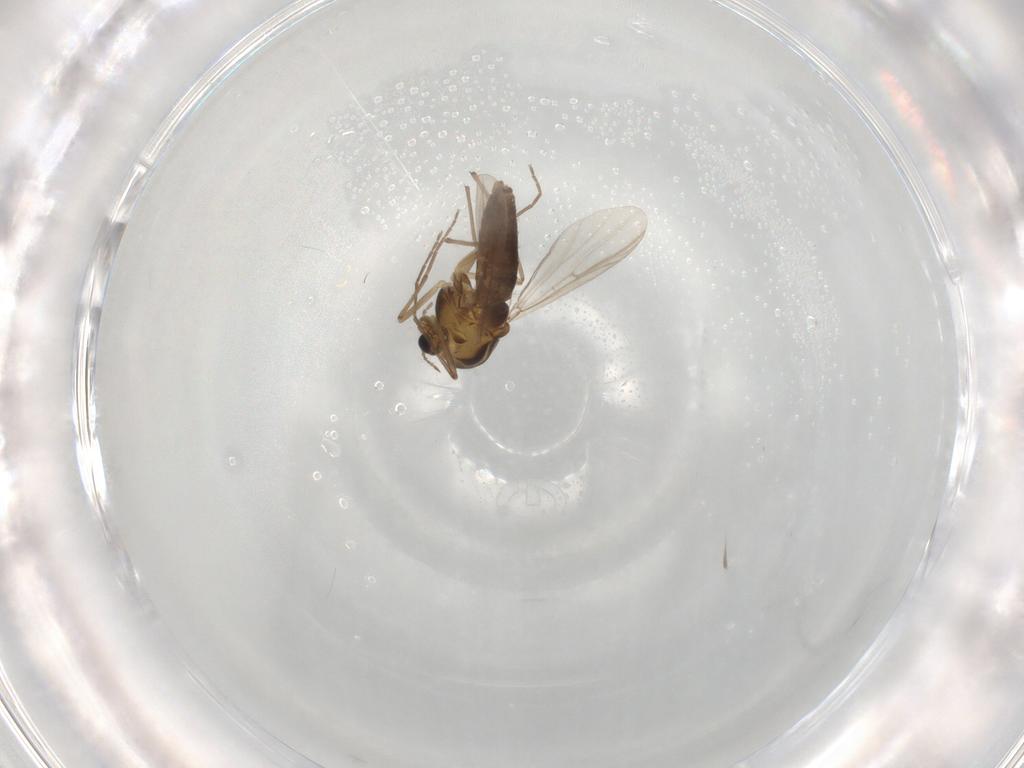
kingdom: Animalia
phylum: Arthropoda
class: Insecta
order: Diptera
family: Chironomidae
